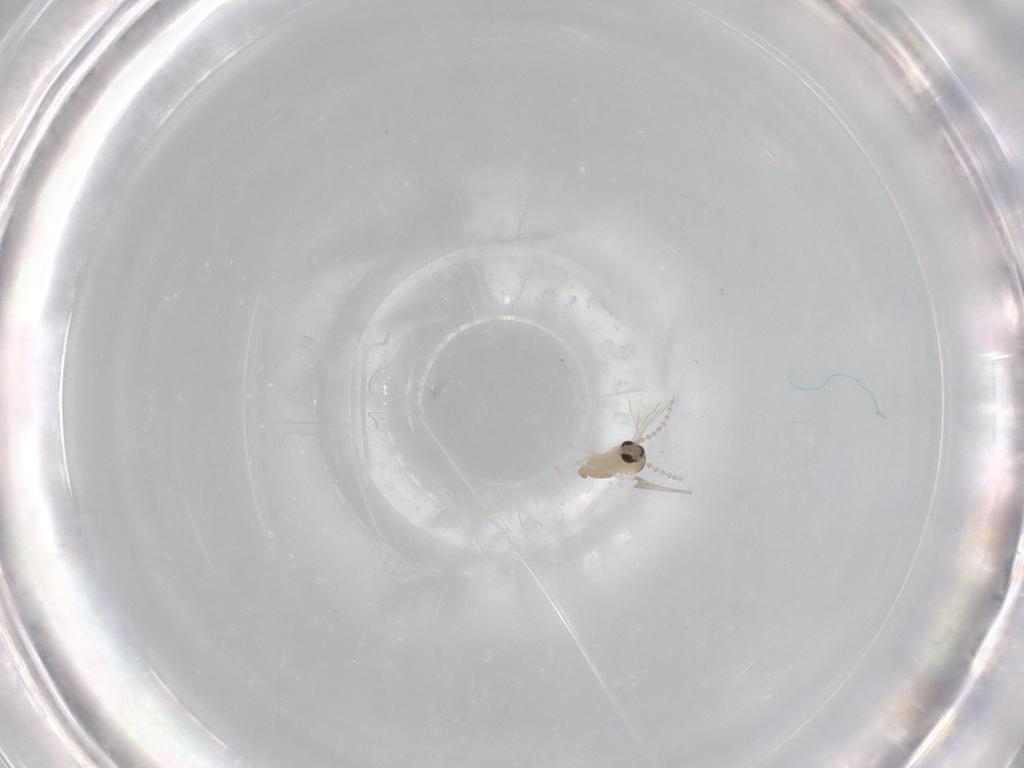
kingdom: Animalia
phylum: Arthropoda
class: Insecta
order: Diptera
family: Cecidomyiidae
